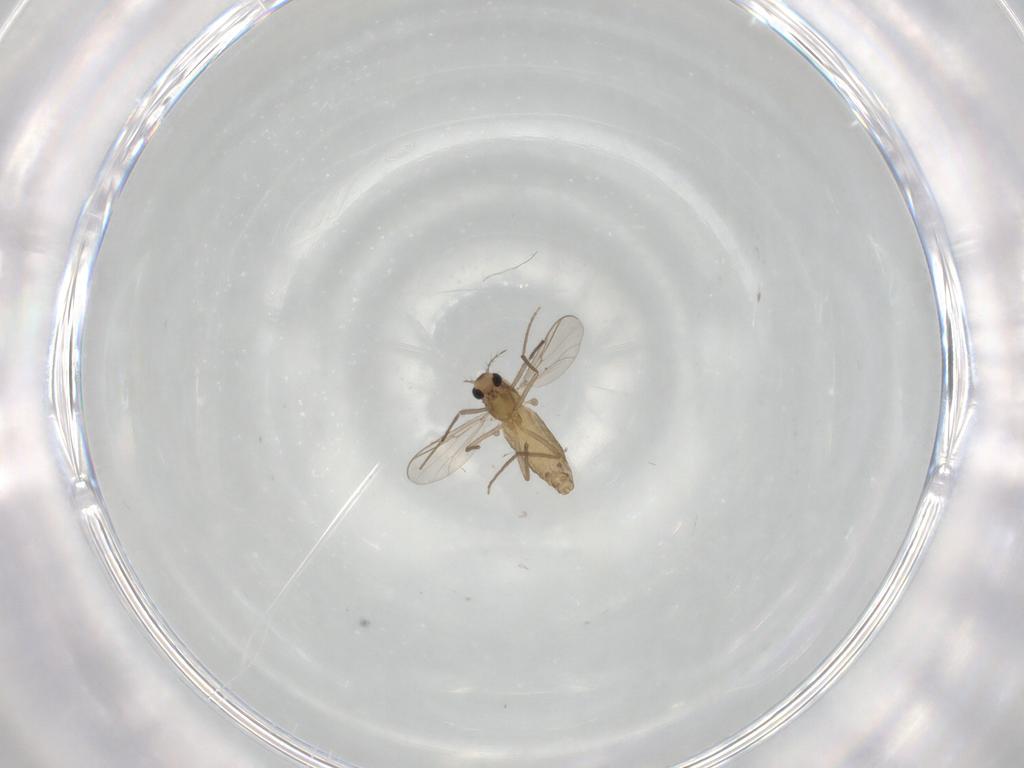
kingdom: Animalia
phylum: Arthropoda
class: Insecta
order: Diptera
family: Chironomidae
